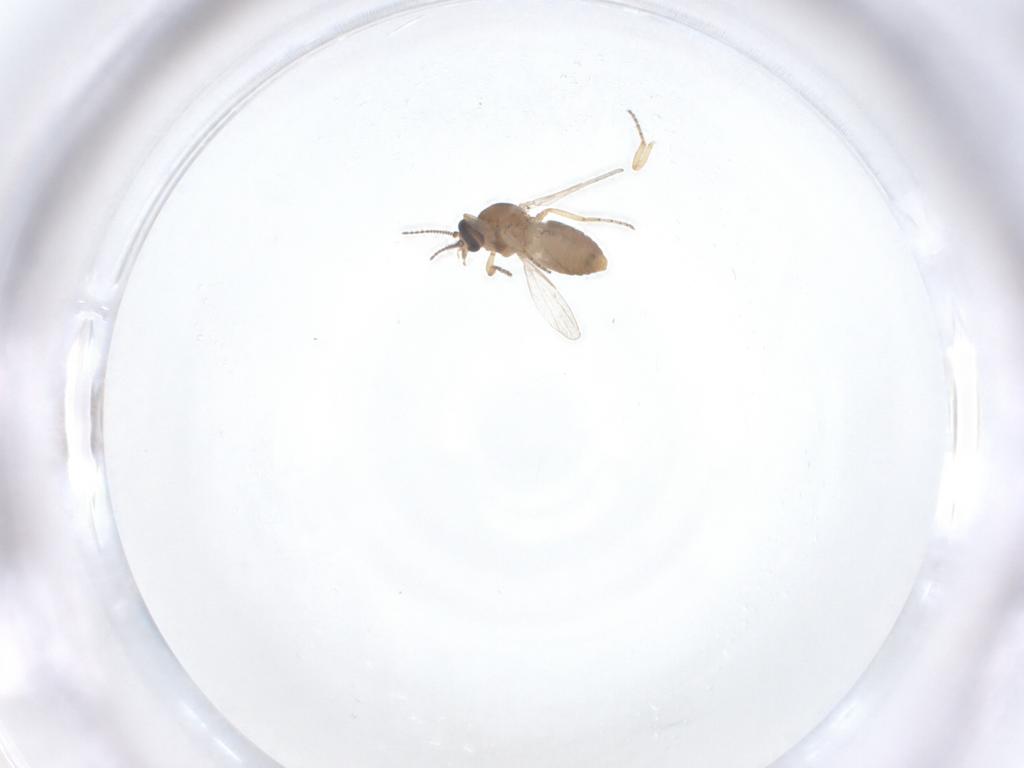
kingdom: Animalia
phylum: Arthropoda
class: Insecta
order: Diptera
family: Ceratopogonidae
